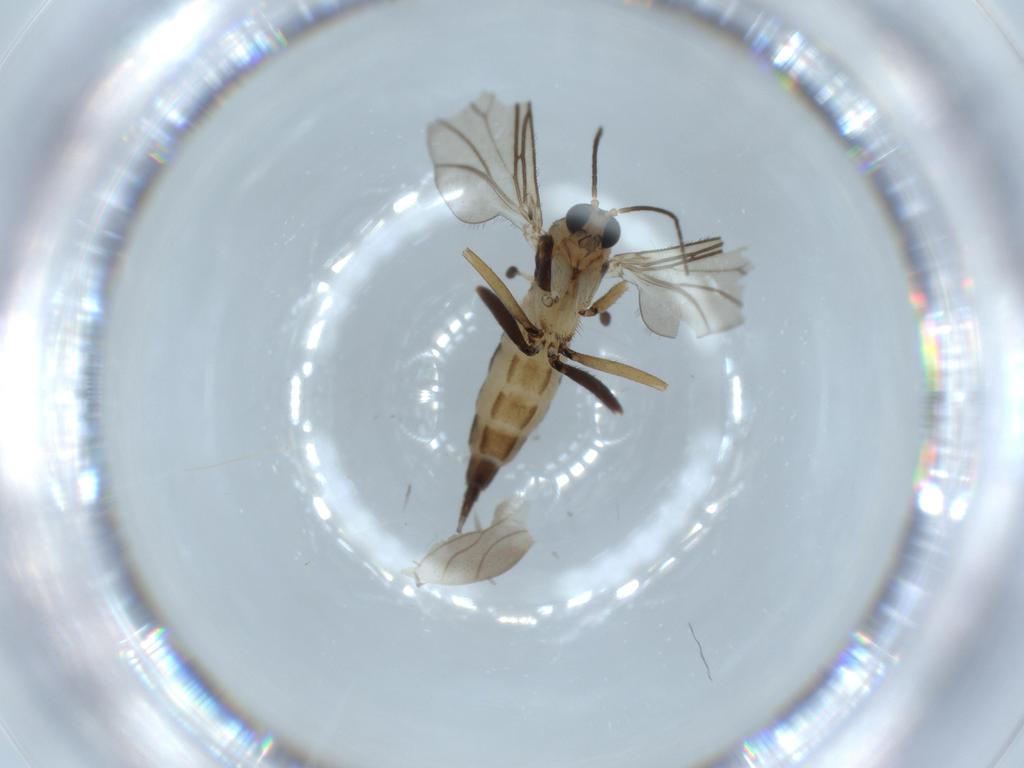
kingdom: Animalia
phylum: Arthropoda
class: Insecta
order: Diptera
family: Sciaridae
